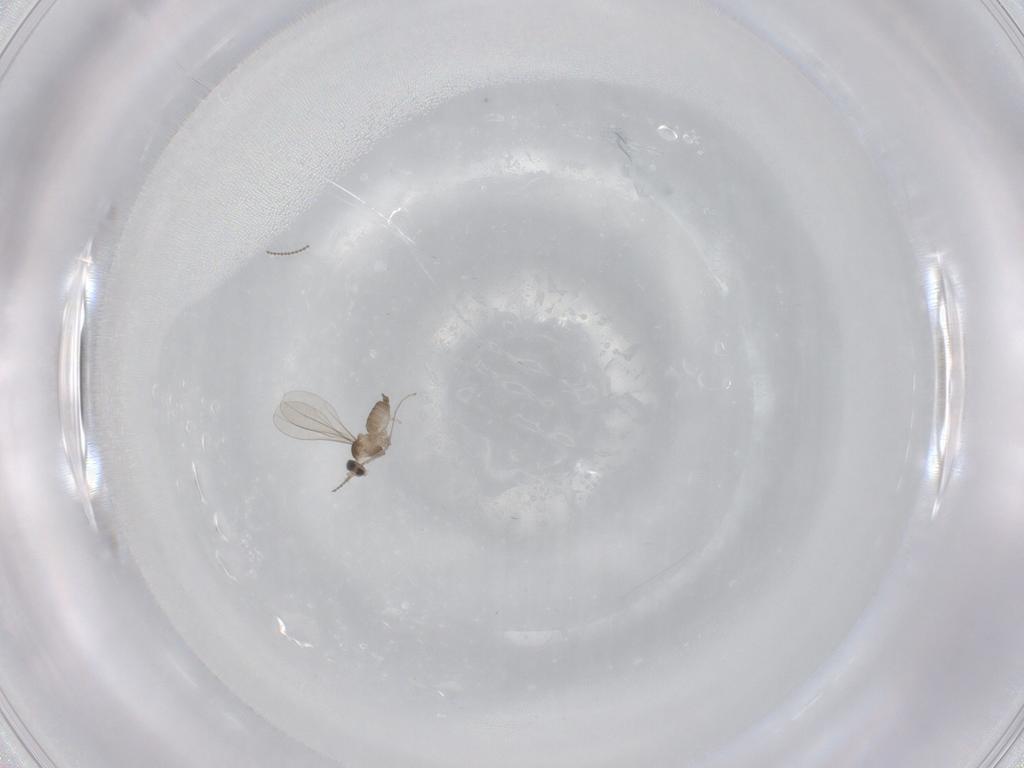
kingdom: Animalia
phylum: Arthropoda
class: Insecta
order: Diptera
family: Cecidomyiidae
